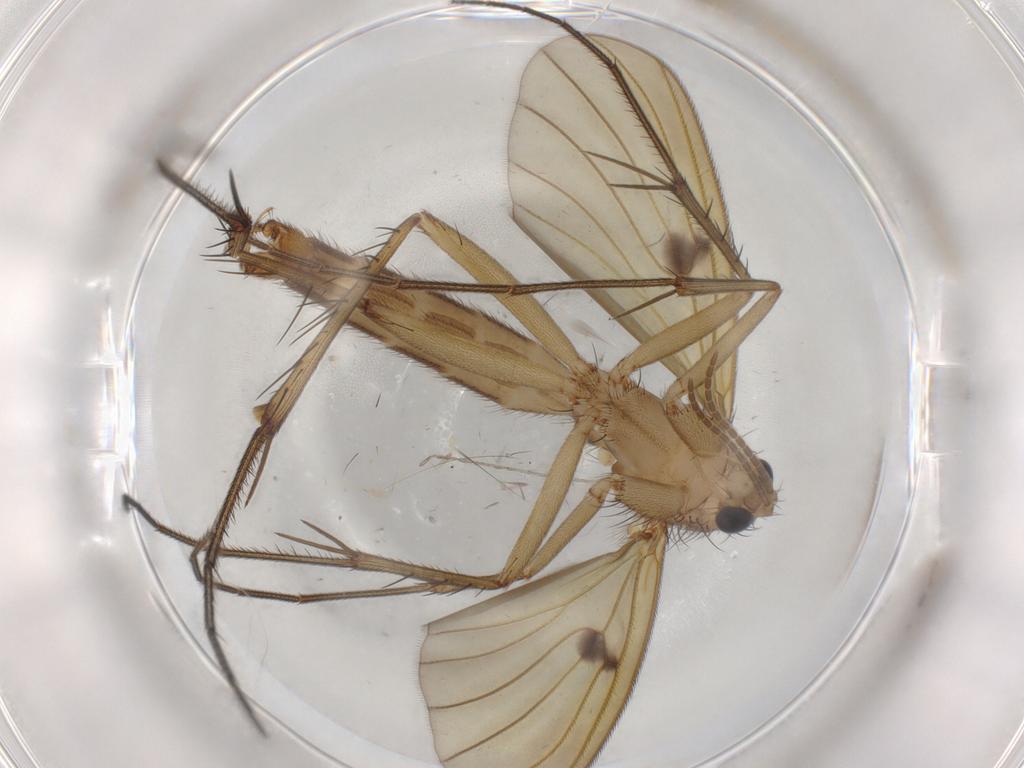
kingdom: Animalia
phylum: Arthropoda
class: Insecta
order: Diptera
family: Mycetophilidae
